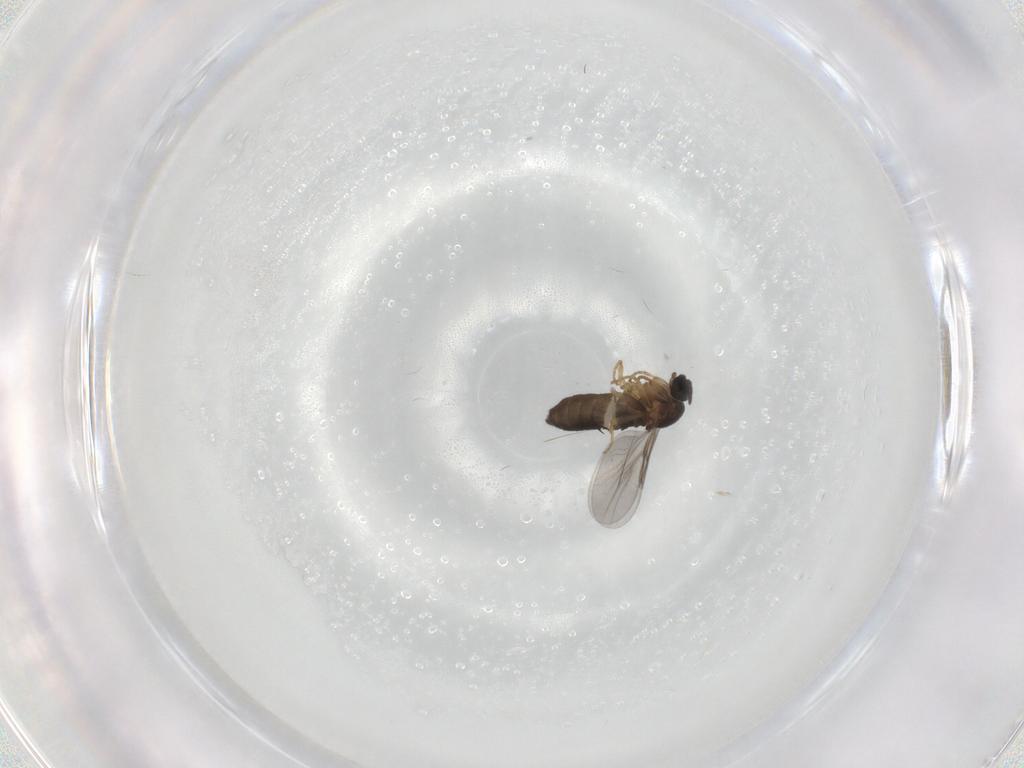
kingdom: Animalia
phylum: Arthropoda
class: Insecta
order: Diptera
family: Phoridae
